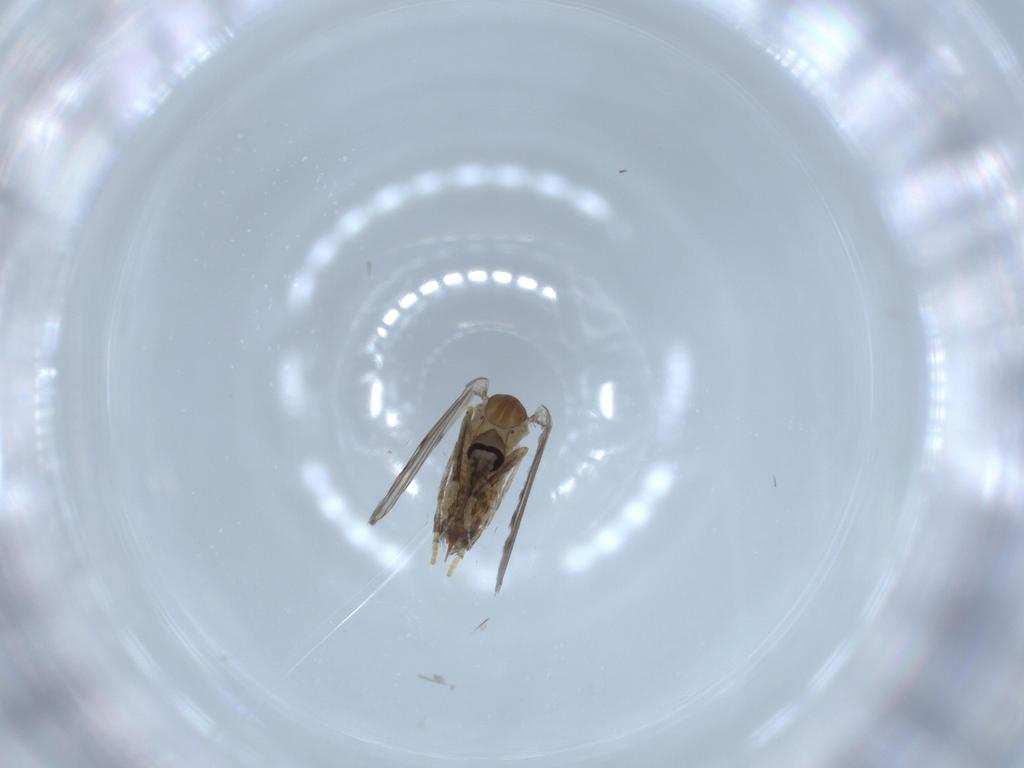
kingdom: Animalia
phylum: Arthropoda
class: Insecta
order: Diptera
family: Psychodidae
